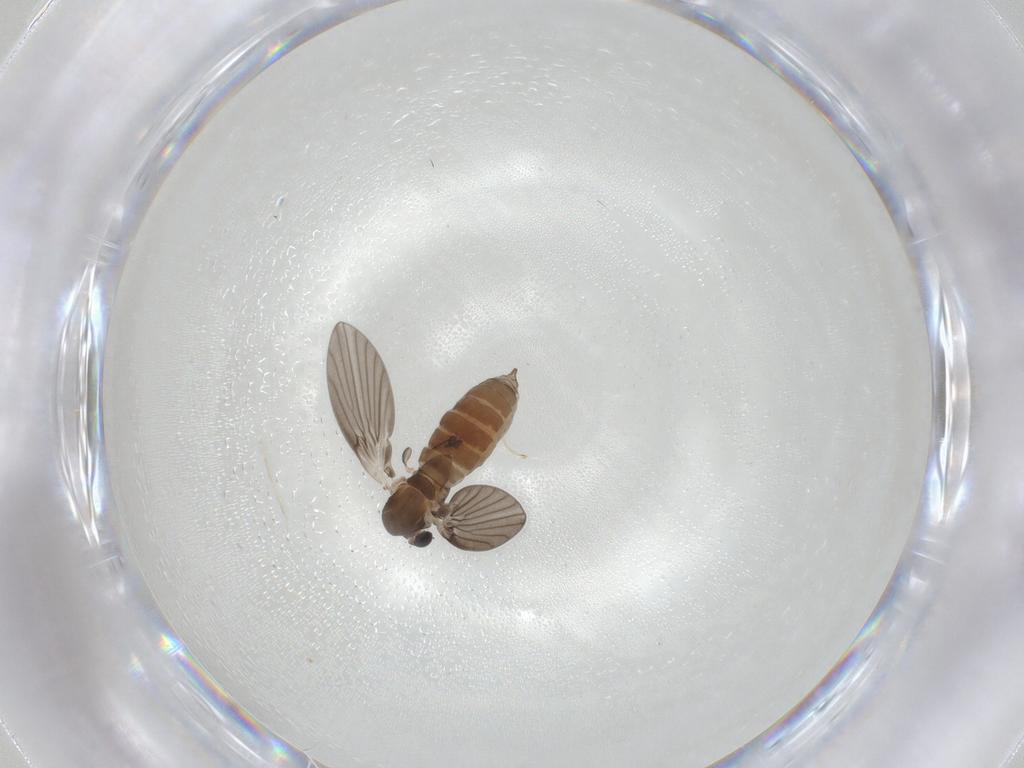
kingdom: Animalia
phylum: Arthropoda
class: Insecta
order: Diptera
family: Psychodidae
